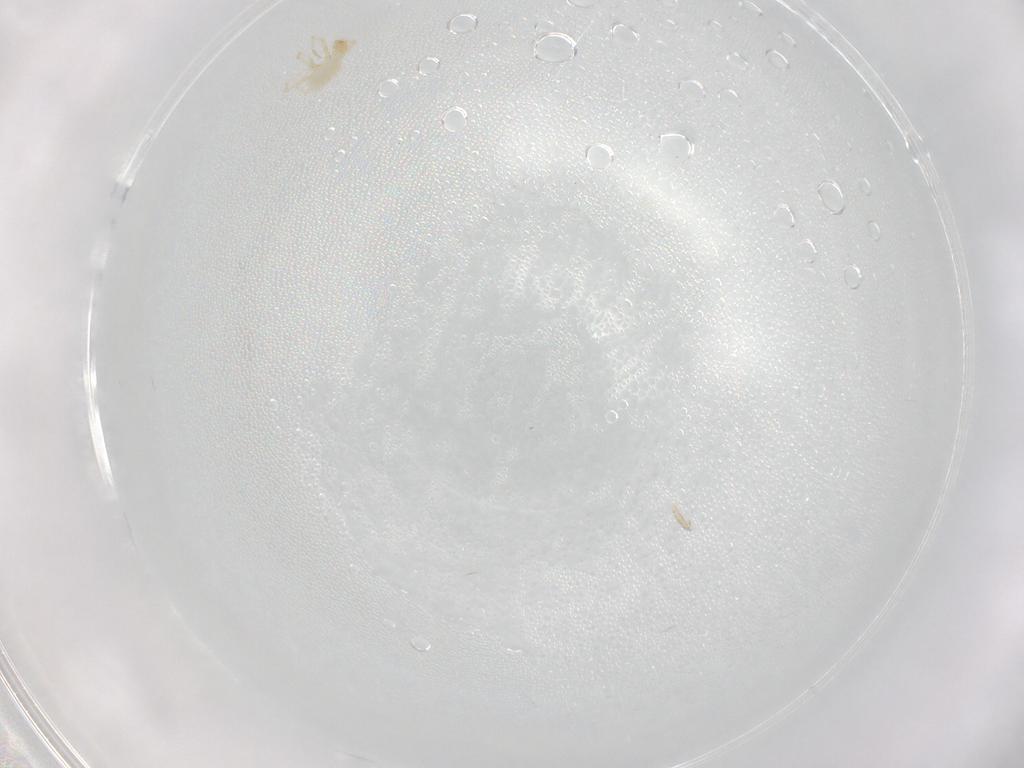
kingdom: Animalia
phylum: Arthropoda
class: Arachnida
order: Trombidiformes
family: Erythraeidae
